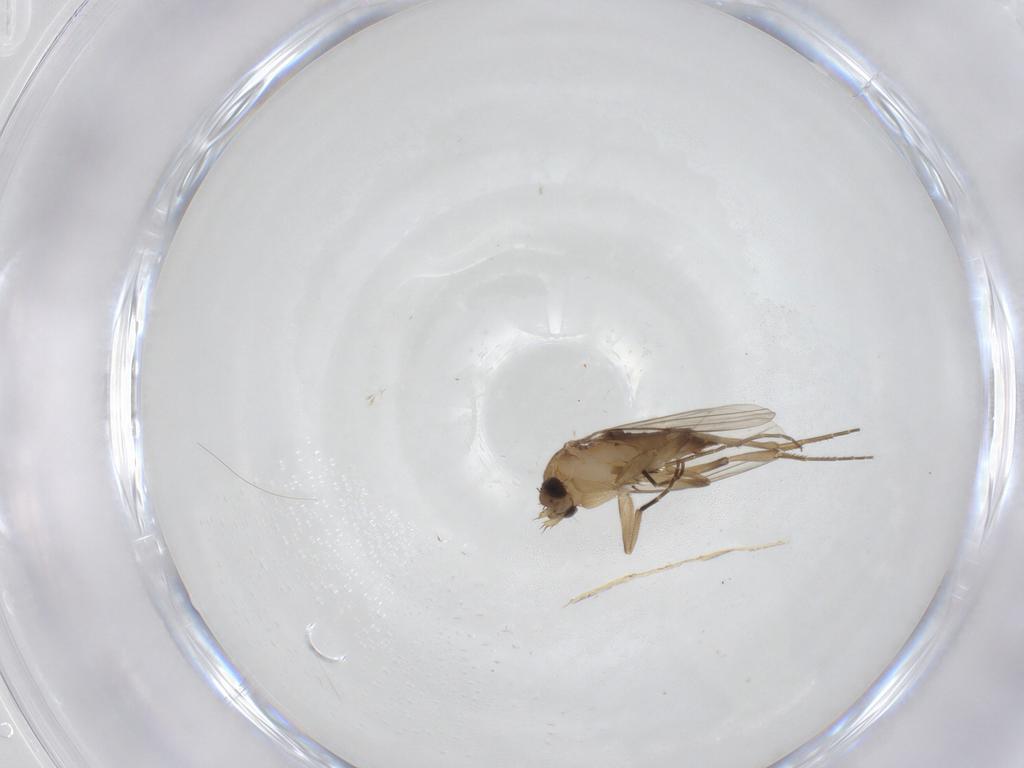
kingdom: Animalia
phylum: Arthropoda
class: Insecta
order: Diptera
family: Phoridae
